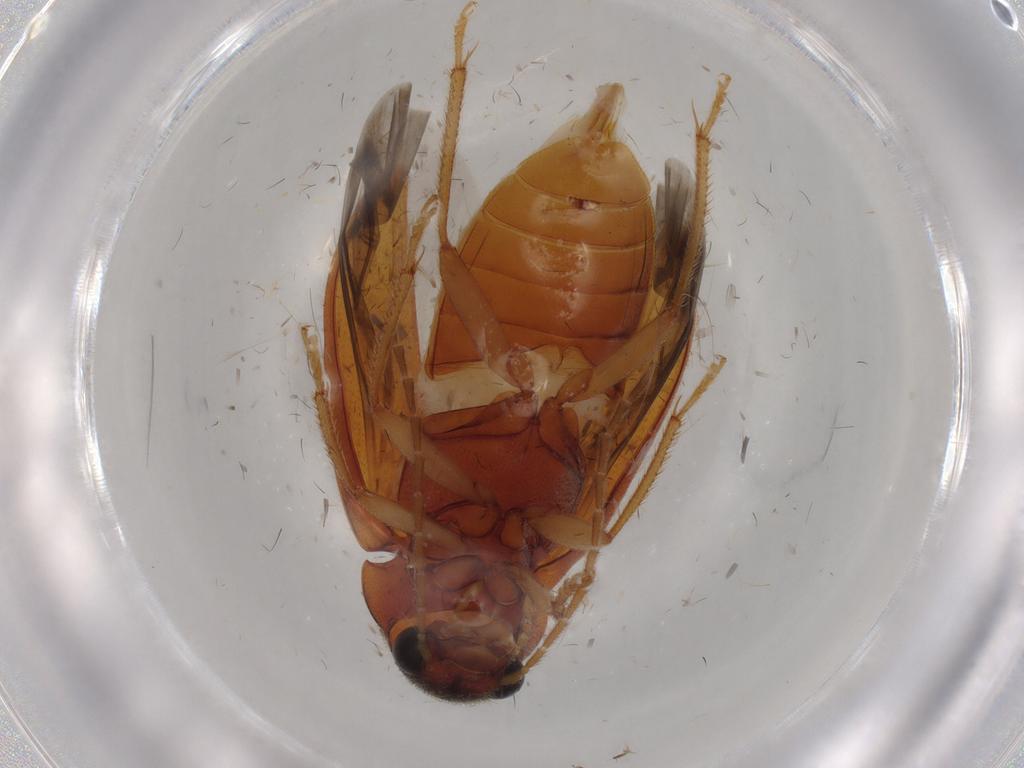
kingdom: Animalia
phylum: Arthropoda
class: Insecta
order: Coleoptera
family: Ptilodactylidae
